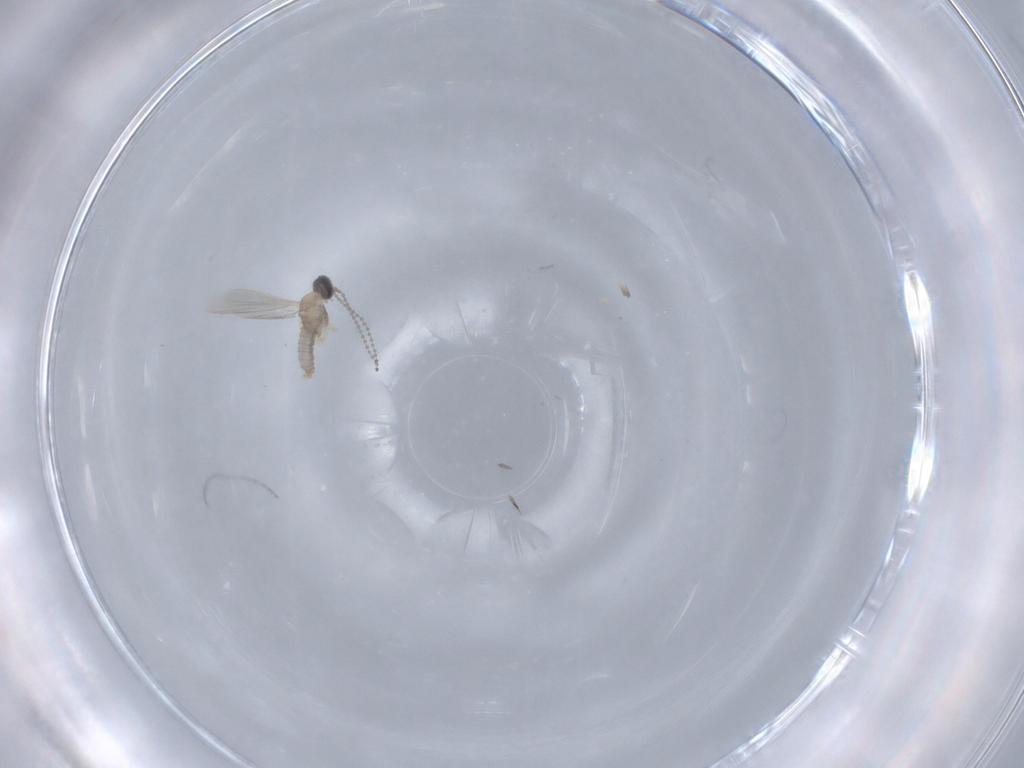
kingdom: Animalia
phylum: Arthropoda
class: Insecta
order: Diptera
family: Cecidomyiidae
